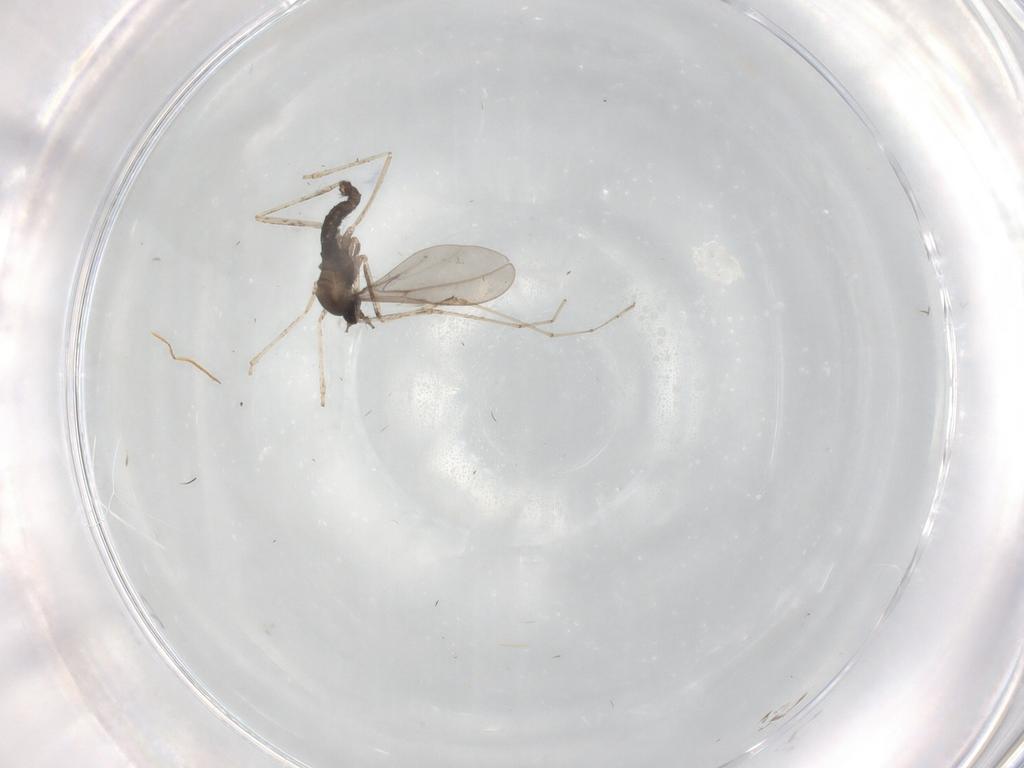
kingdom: Animalia
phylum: Arthropoda
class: Insecta
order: Diptera
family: Cecidomyiidae
